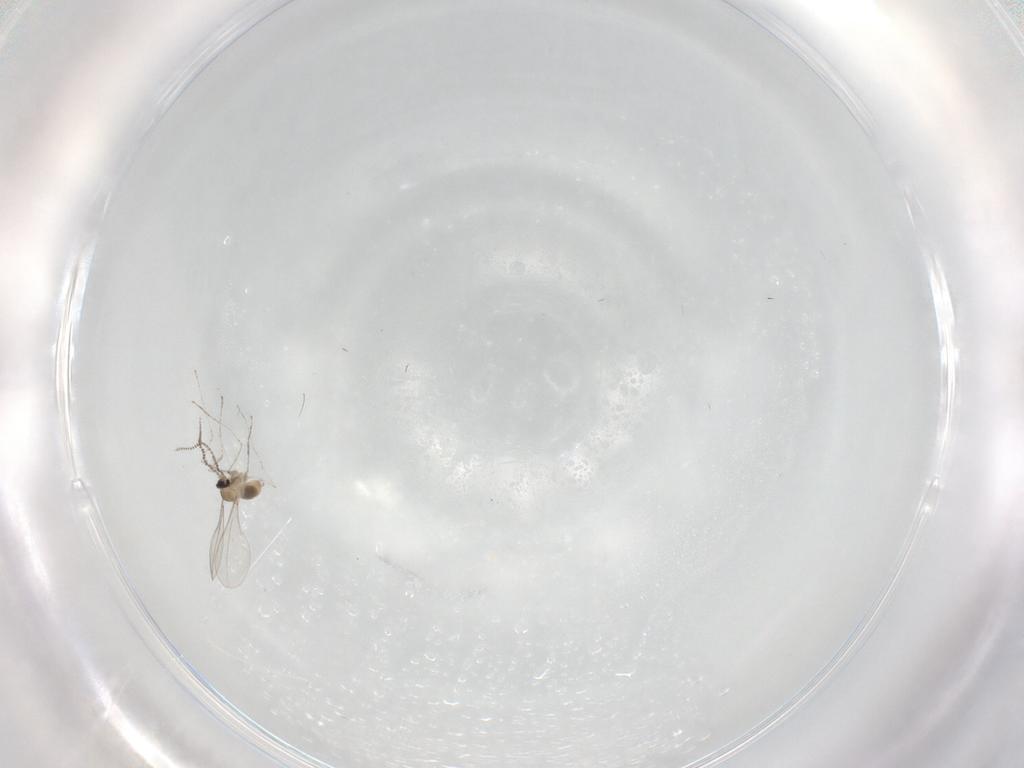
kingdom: Animalia
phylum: Arthropoda
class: Insecta
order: Diptera
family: Cecidomyiidae
